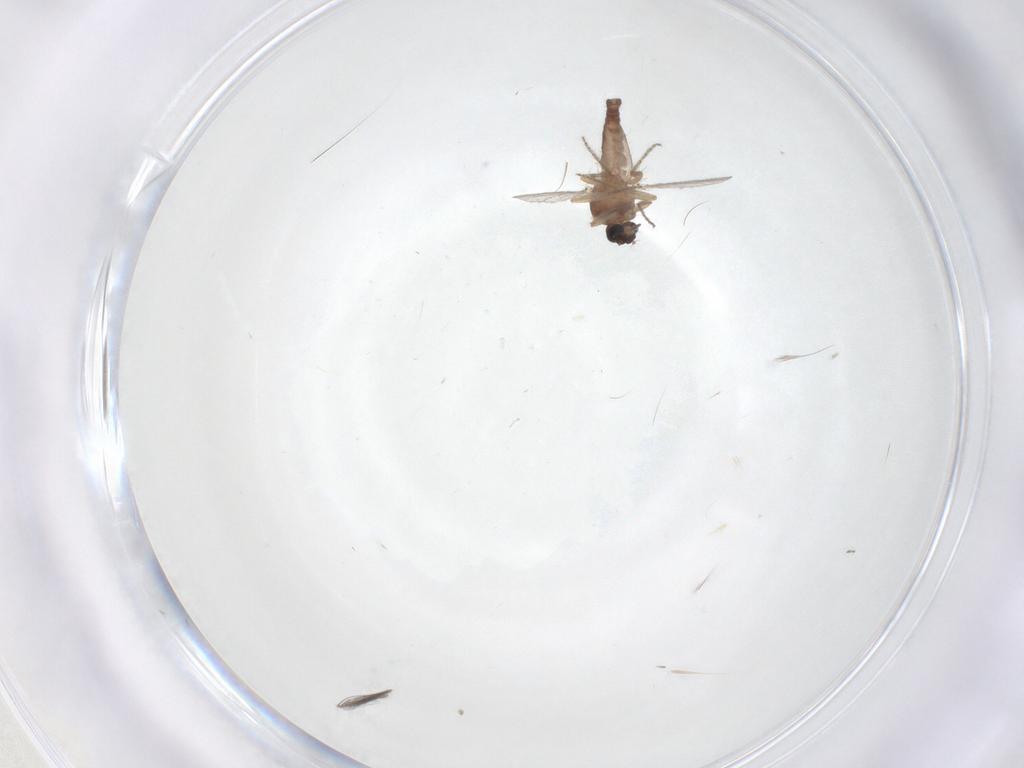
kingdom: Animalia
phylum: Arthropoda
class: Insecta
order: Diptera
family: Ceratopogonidae
